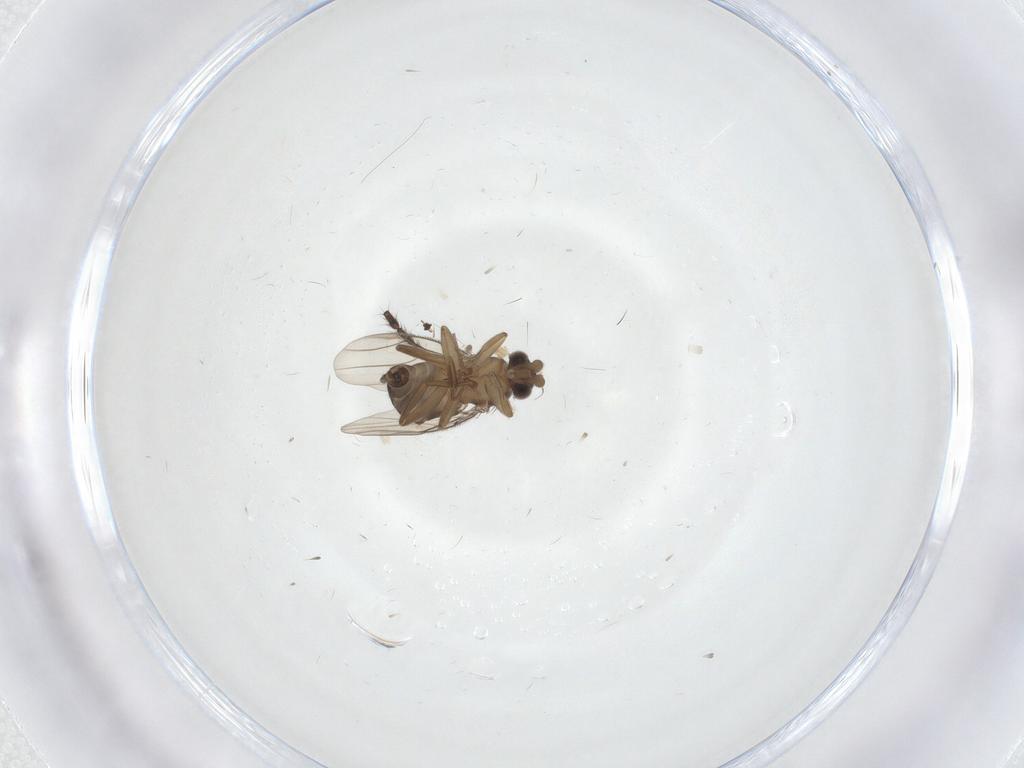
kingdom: Animalia
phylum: Arthropoda
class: Insecta
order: Diptera
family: Phoridae
